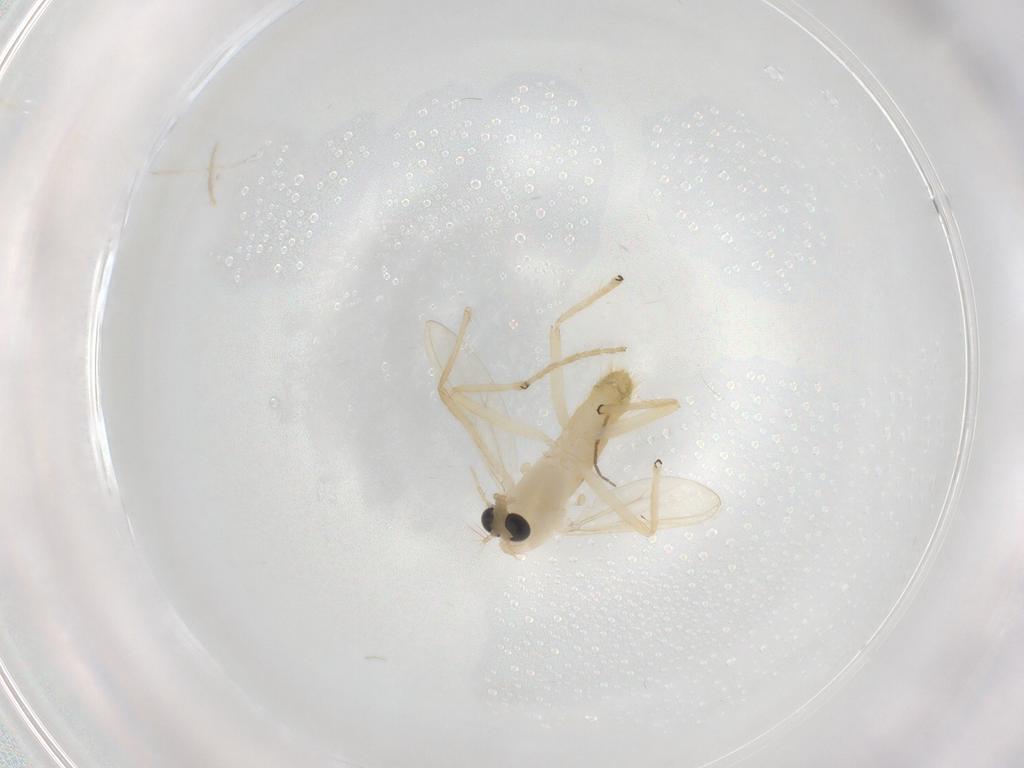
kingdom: Animalia
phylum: Arthropoda
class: Insecta
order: Diptera
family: Chironomidae
